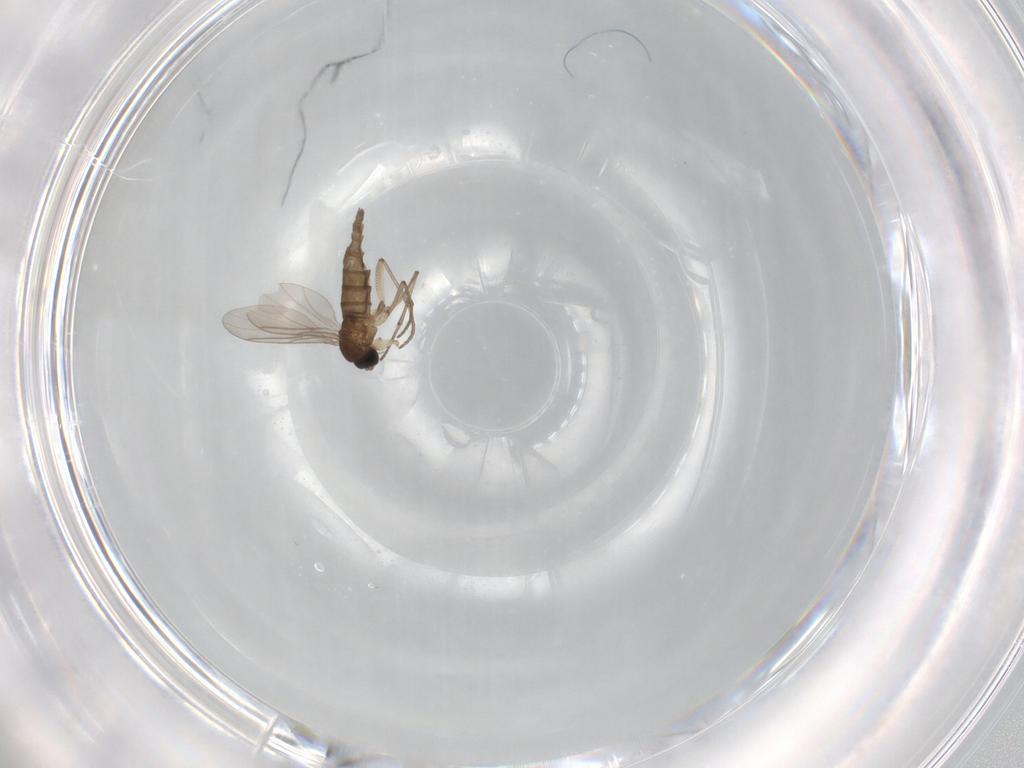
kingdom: Animalia
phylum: Arthropoda
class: Insecta
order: Diptera
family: Sciaridae
